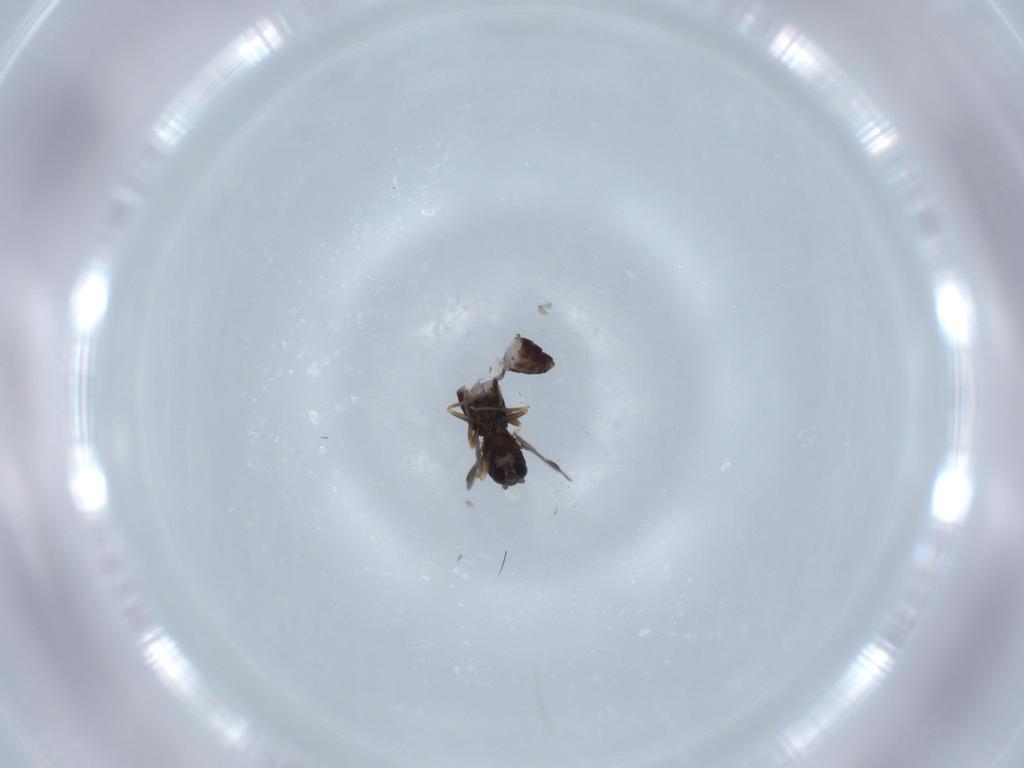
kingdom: Animalia
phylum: Arthropoda
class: Insecta
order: Diptera
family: Ceratopogonidae
